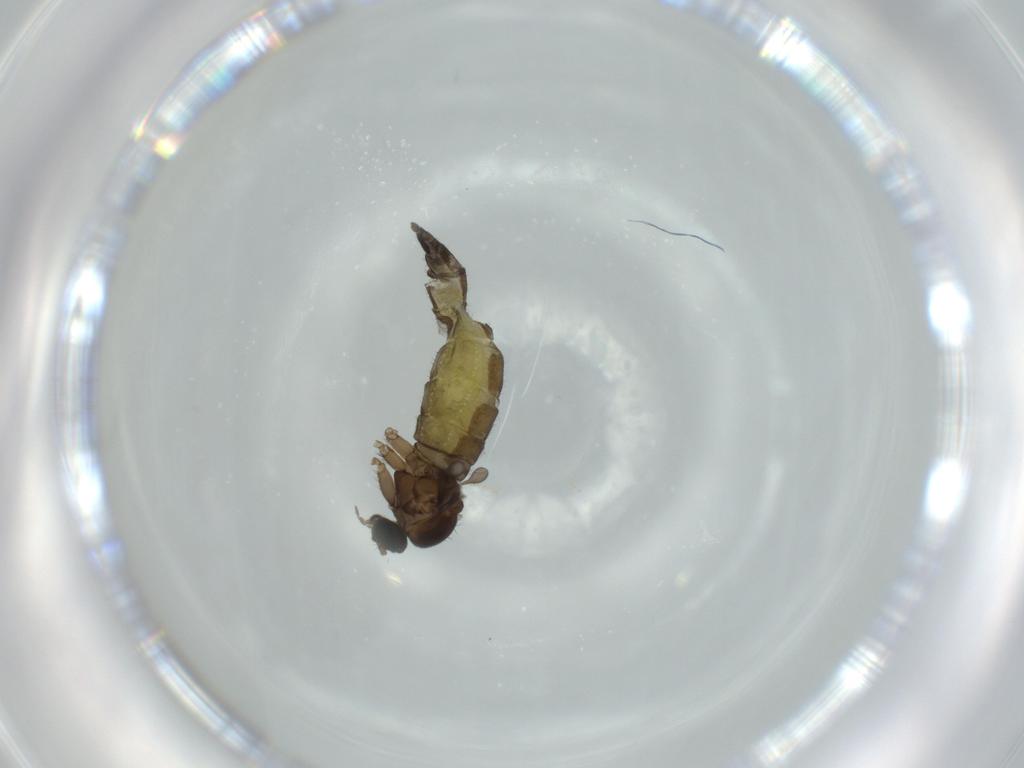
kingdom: Animalia
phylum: Arthropoda
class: Insecta
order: Diptera
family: Sciaridae
